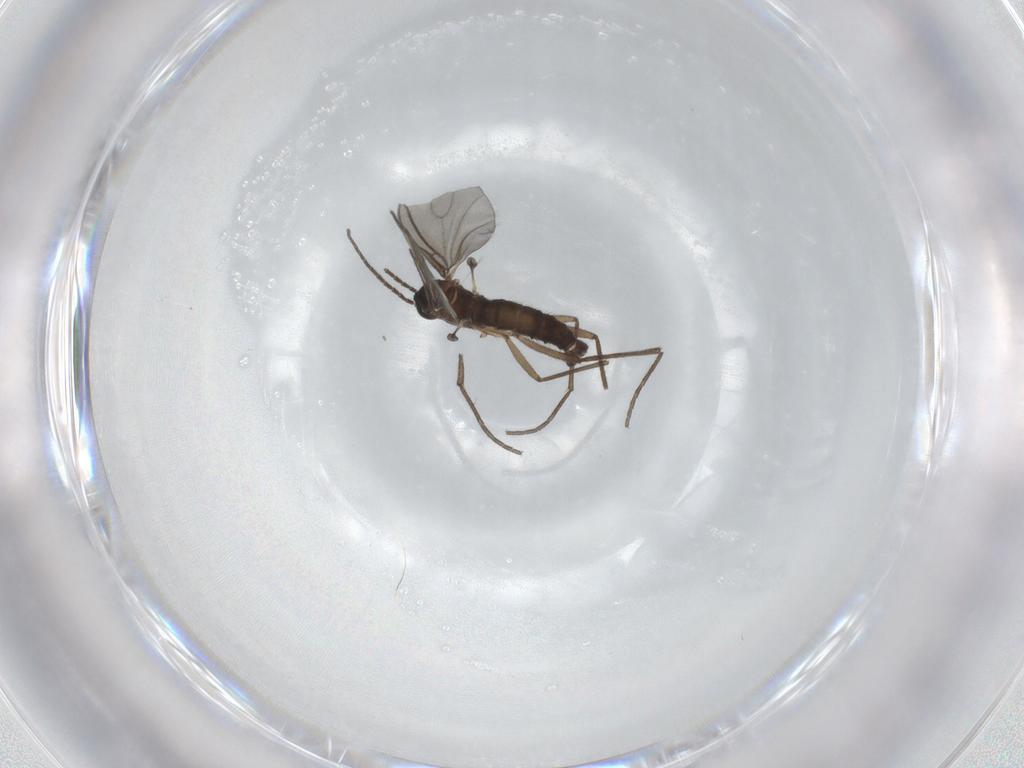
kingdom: Animalia
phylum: Arthropoda
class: Insecta
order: Diptera
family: Sciaridae
